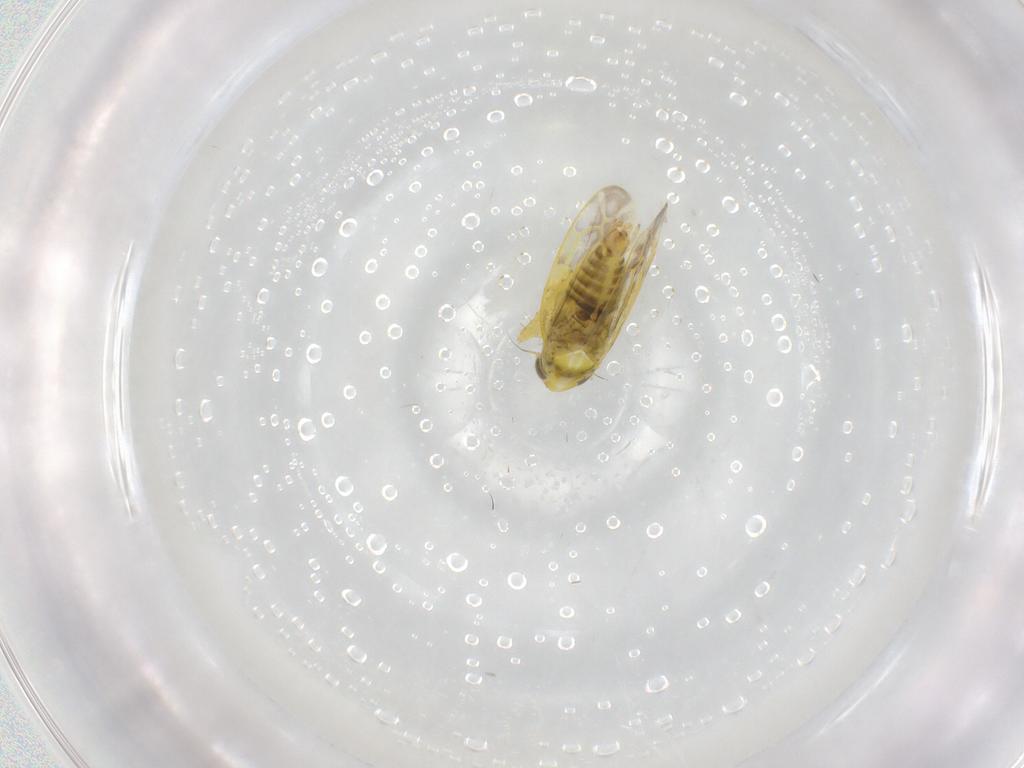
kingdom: Animalia
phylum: Arthropoda
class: Insecta
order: Hemiptera
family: Cicadellidae
